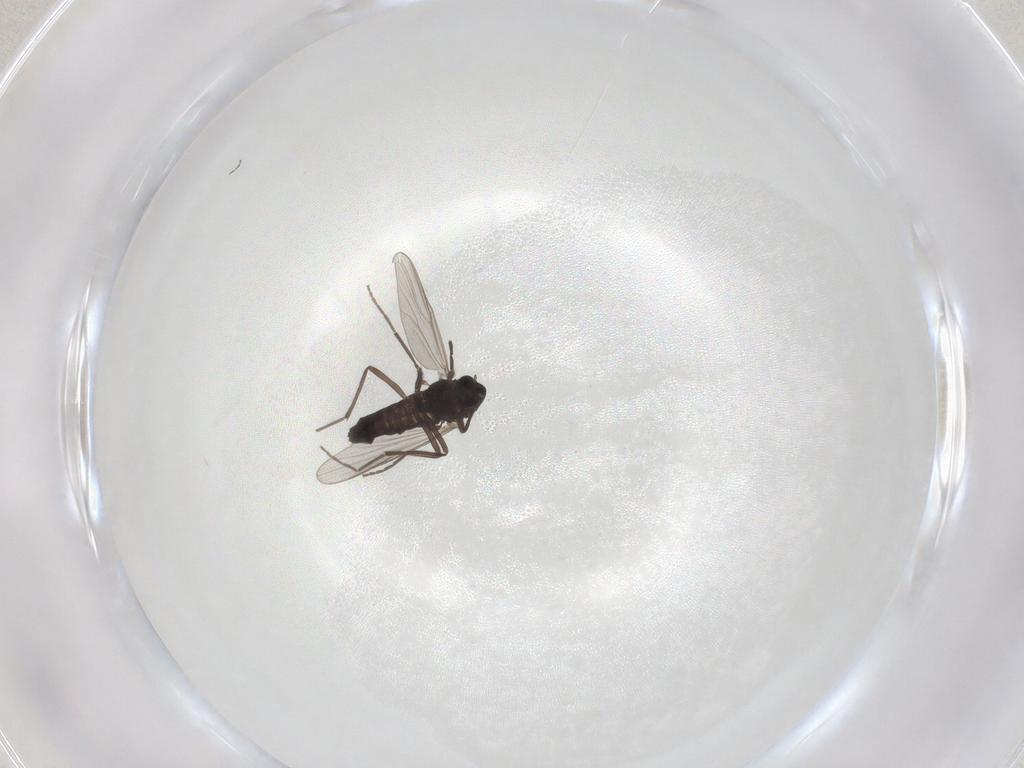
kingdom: Animalia
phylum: Arthropoda
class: Insecta
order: Diptera
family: Chironomidae
